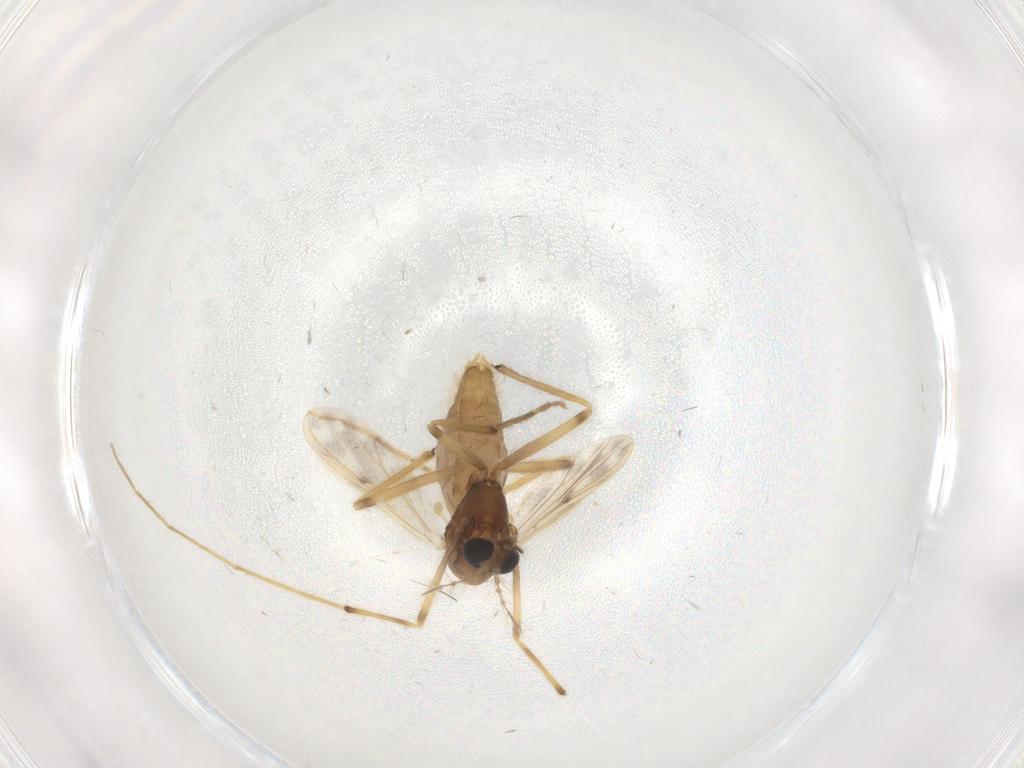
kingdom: Animalia
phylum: Arthropoda
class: Insecta
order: Diptera
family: Chironomidae
